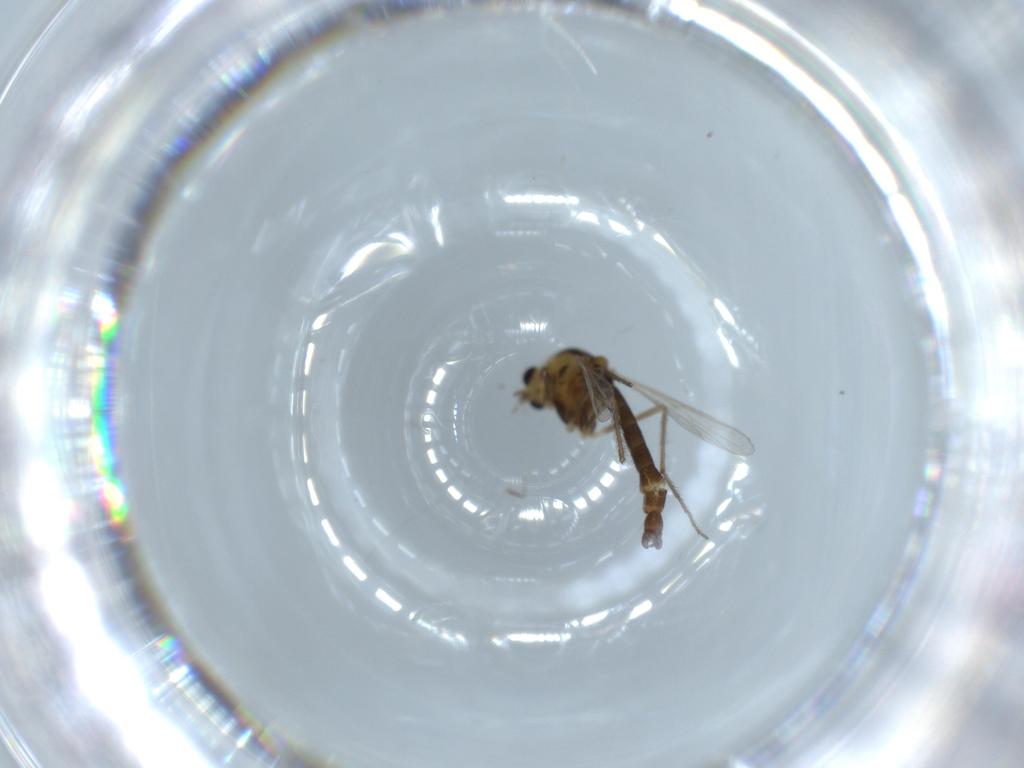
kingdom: Animalia
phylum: Arthropoda
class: Insecta
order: Diptera
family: Chironomidae
